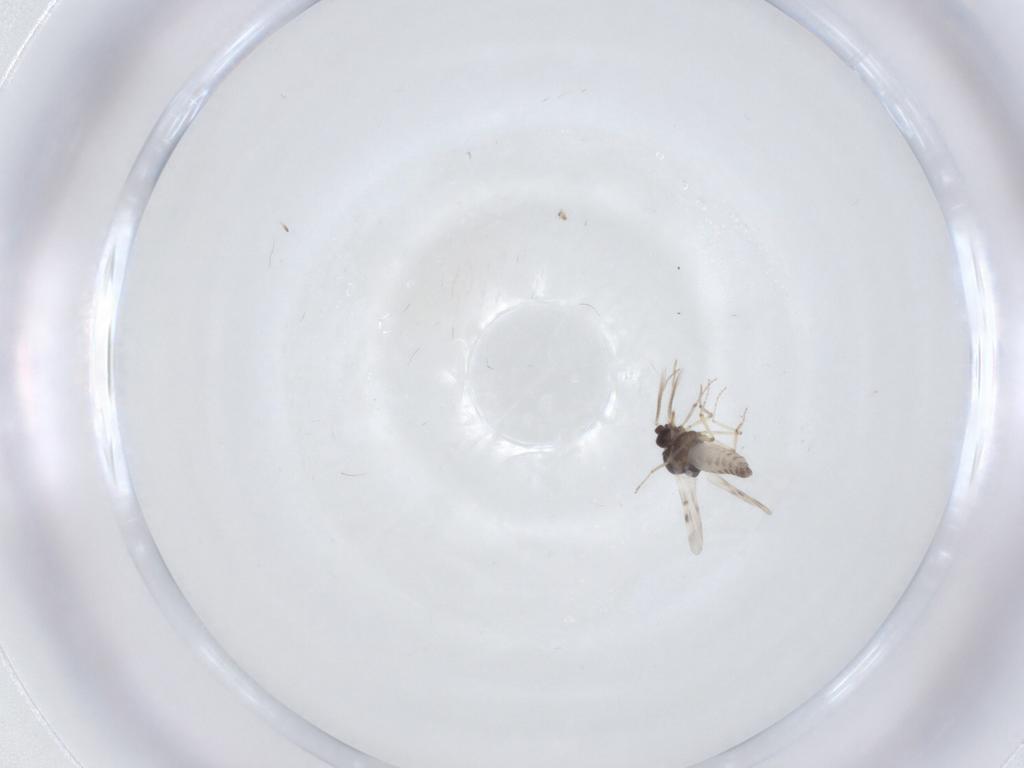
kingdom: Animalia
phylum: Arthropoda
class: Insecta
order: Diptera
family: Cecidomyiidae
